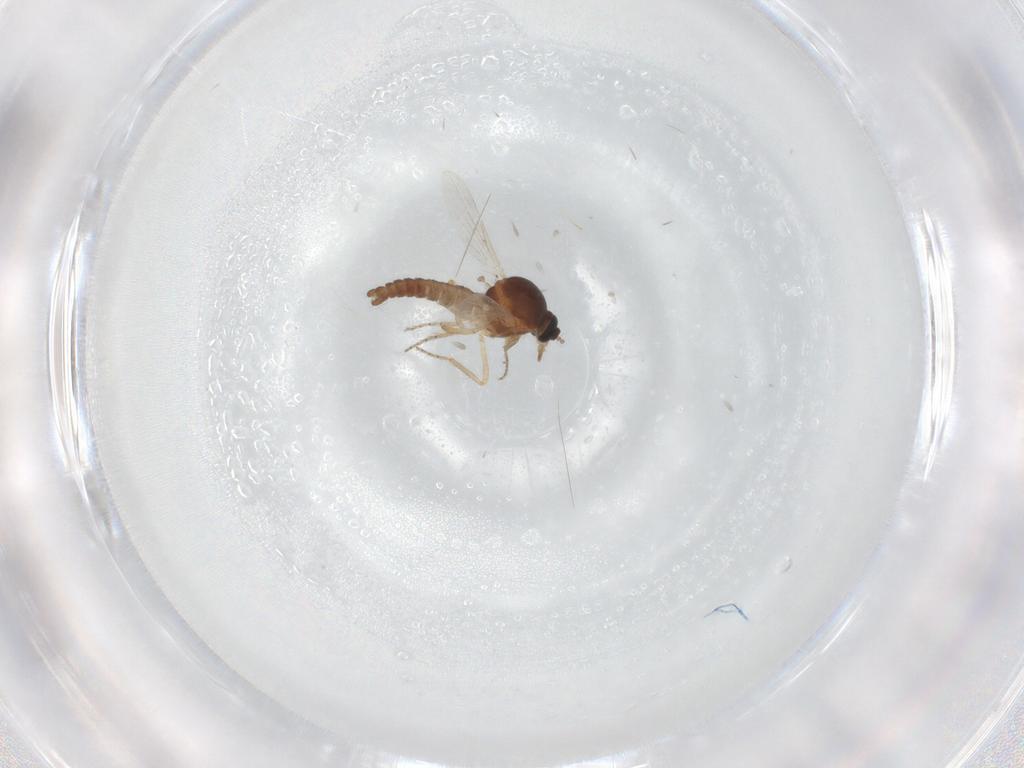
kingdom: Animalia
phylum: Arthropoda
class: Insecta
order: Diptera
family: Ceratopogonidae
